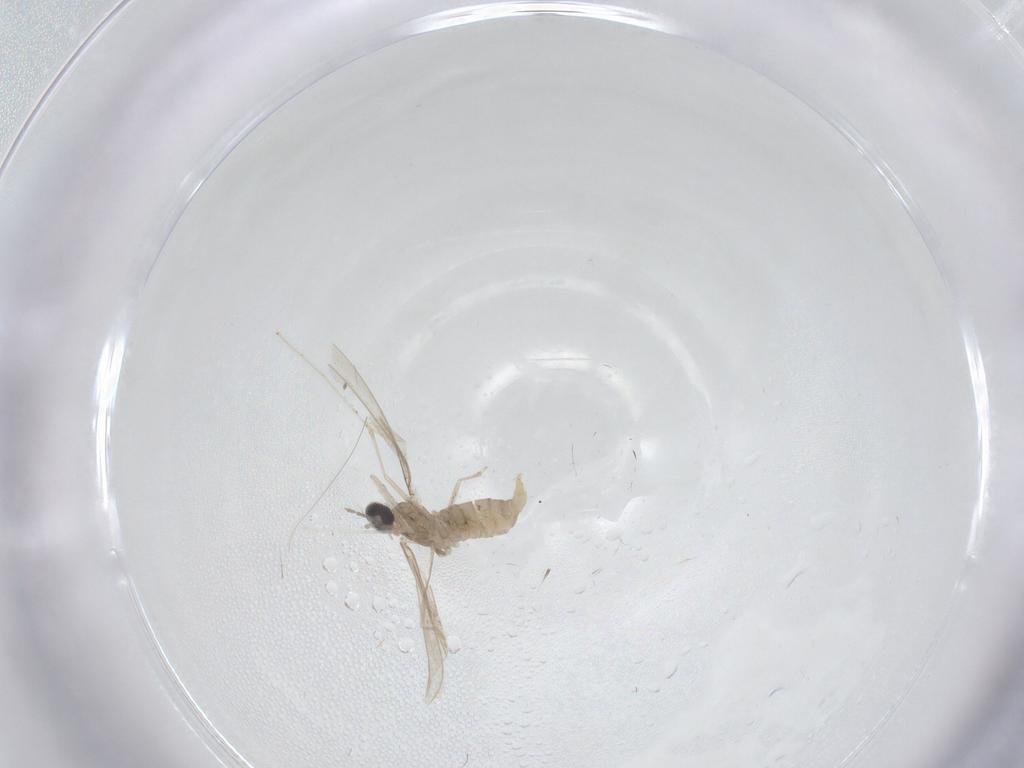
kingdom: Animalia
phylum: Arthropoda
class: Insecta
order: Diptera
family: Cecidomyiidae
